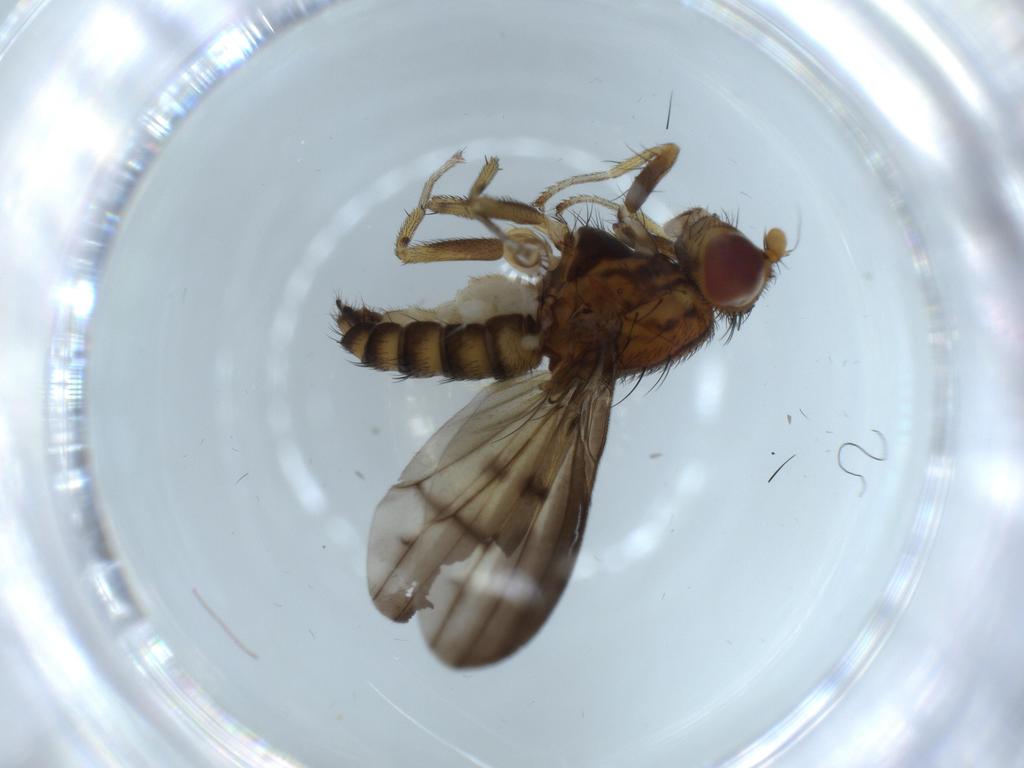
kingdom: Animalia
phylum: Arthropoda
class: Insecta
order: Diptera
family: Lauxaniidae
